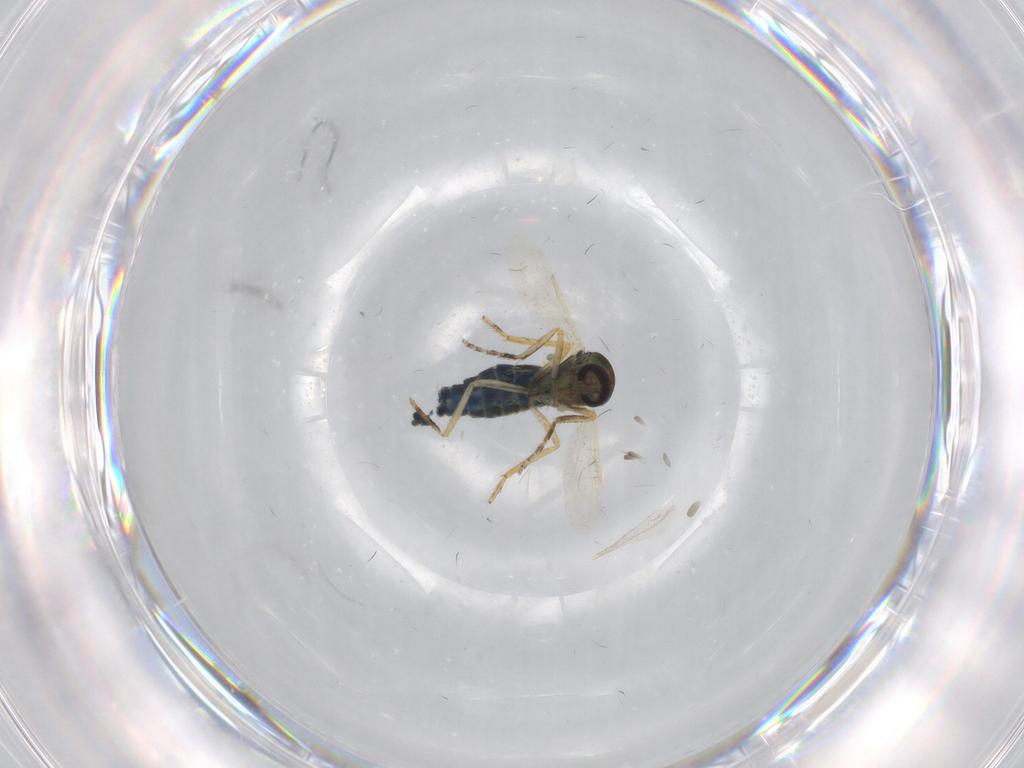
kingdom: Animalia
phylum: Arthropoda
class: Insecta
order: Diptera
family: Ceratopogonidae
